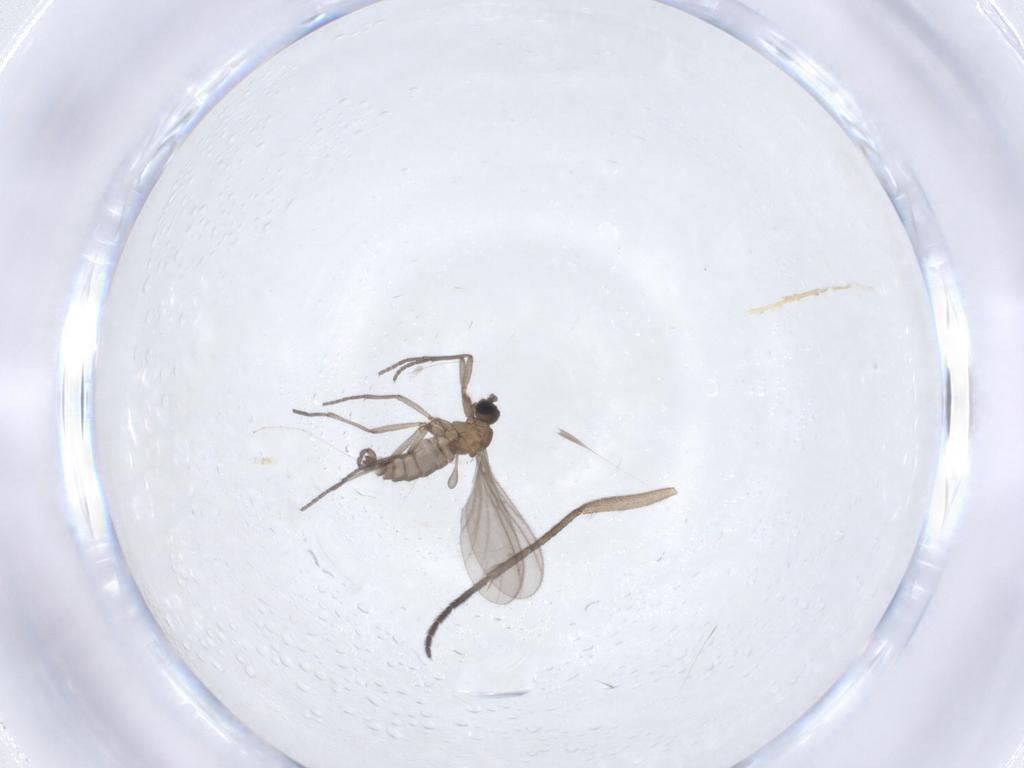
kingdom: Animalia
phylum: Arthropoda
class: Insecta
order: Diptera
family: Sciaridae
